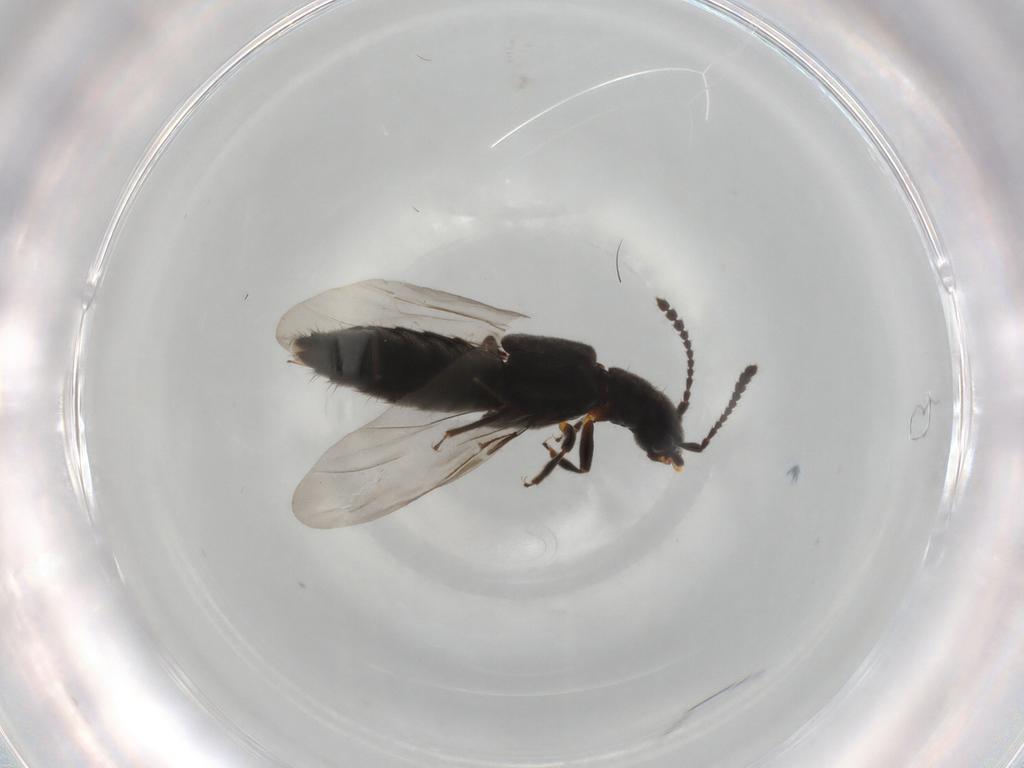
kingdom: Animalia
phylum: Arthropoda
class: Insecta
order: Coleoptera
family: Staphylinidae
